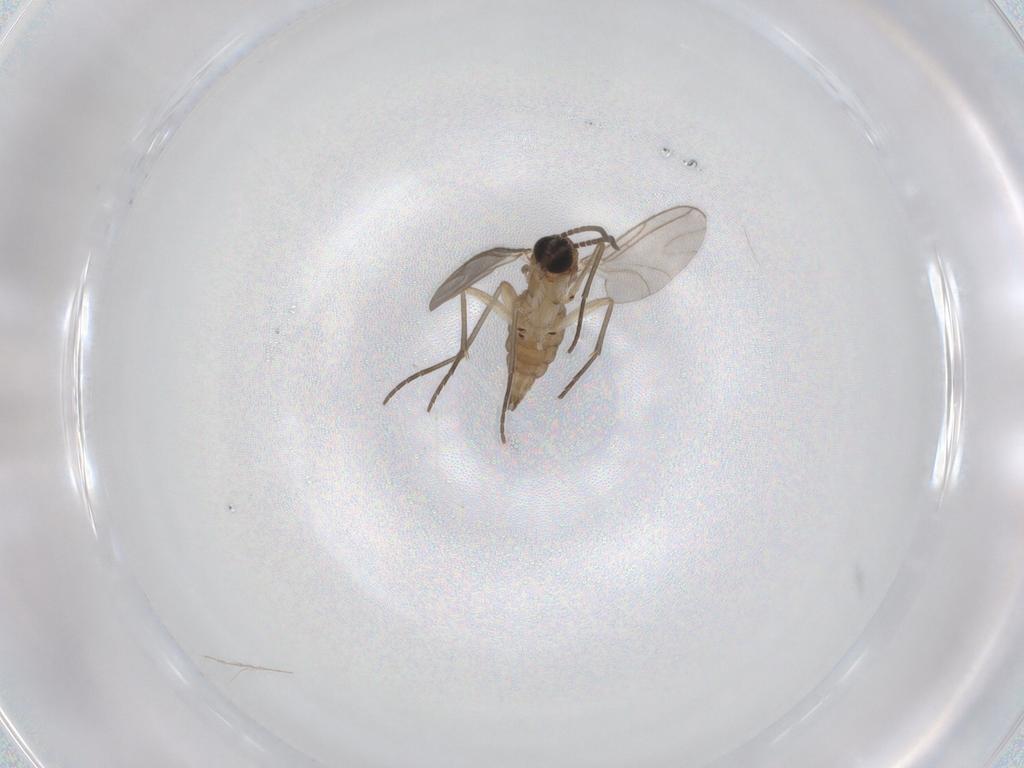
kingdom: Animalia
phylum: Arthropoda
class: Insecta
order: Diptera
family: Sciaridae
